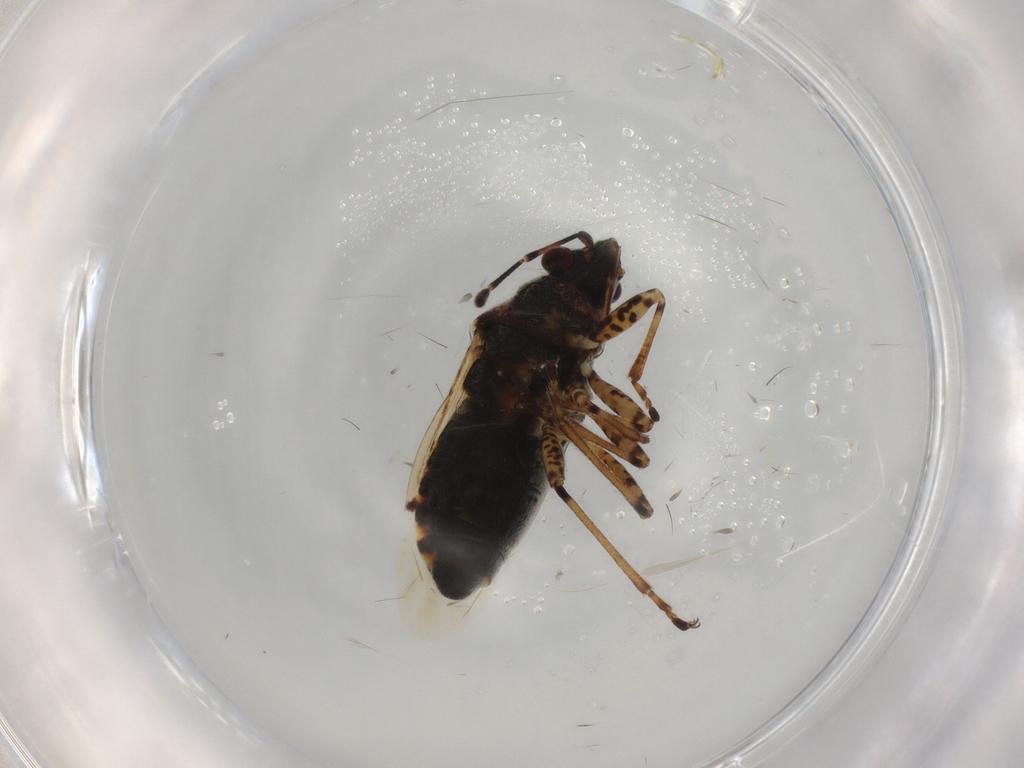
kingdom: Animalia
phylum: Arthropoda
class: Insecta
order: Hemiptera
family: Lygaeidae
